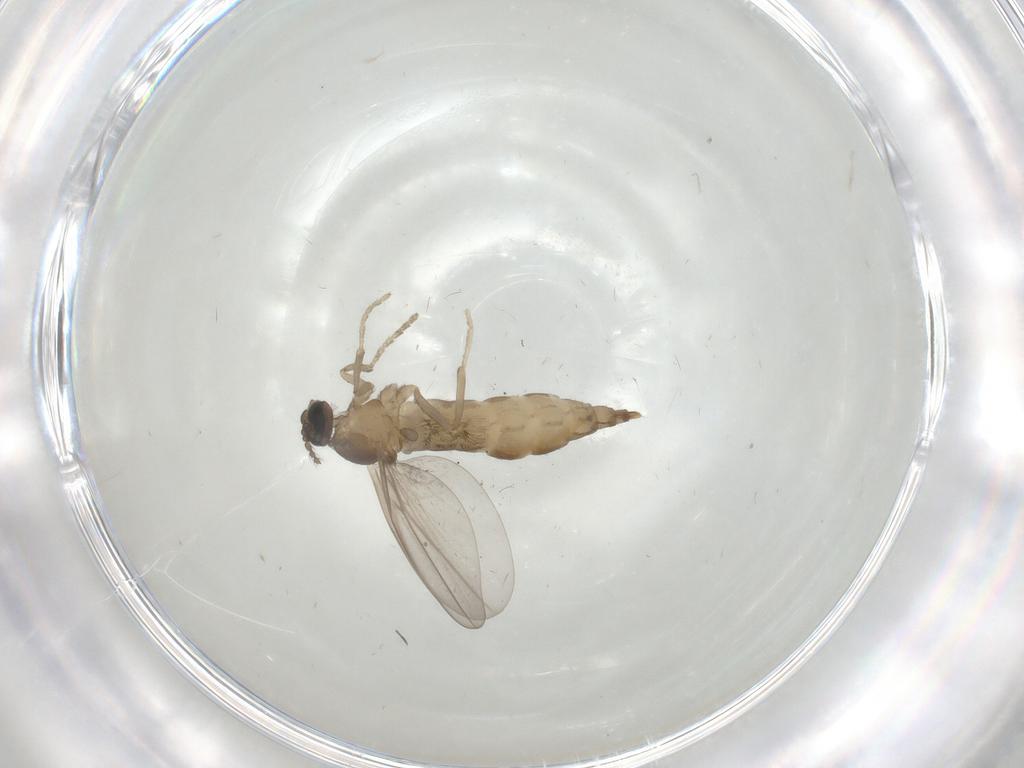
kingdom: Animalia
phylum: Arthropoda
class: Insecta
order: Diptera
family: Cecidomyiidae
